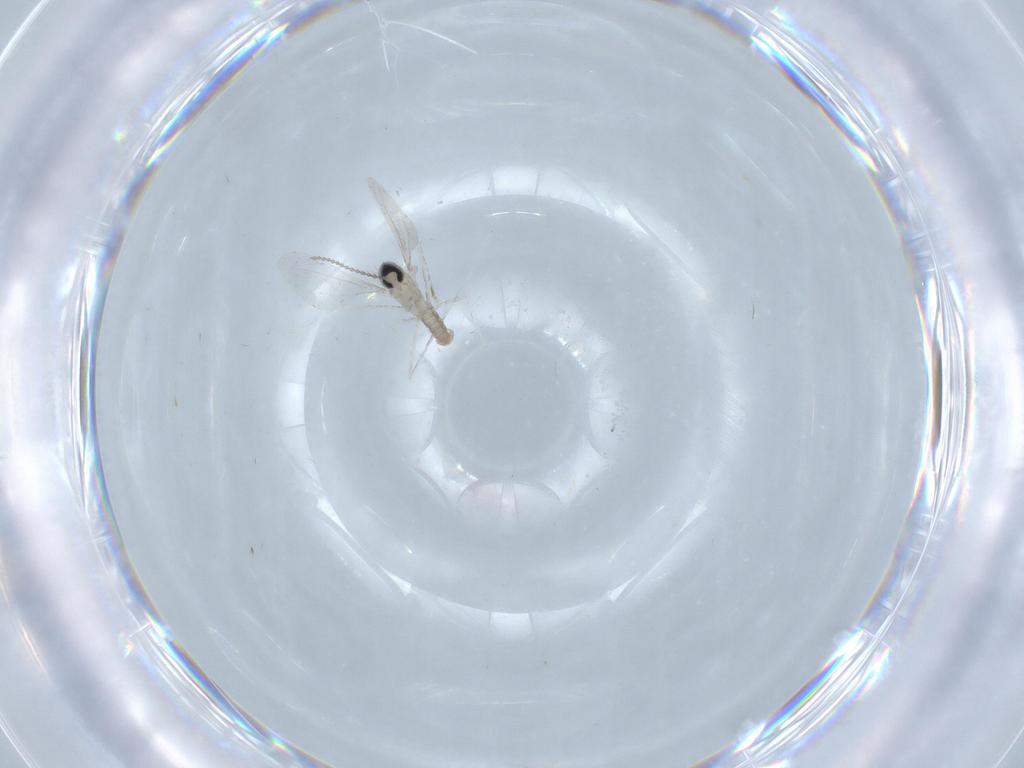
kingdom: Animalia
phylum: Arthropoda
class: Insecta
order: Diptera
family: Cecidomyiidae
